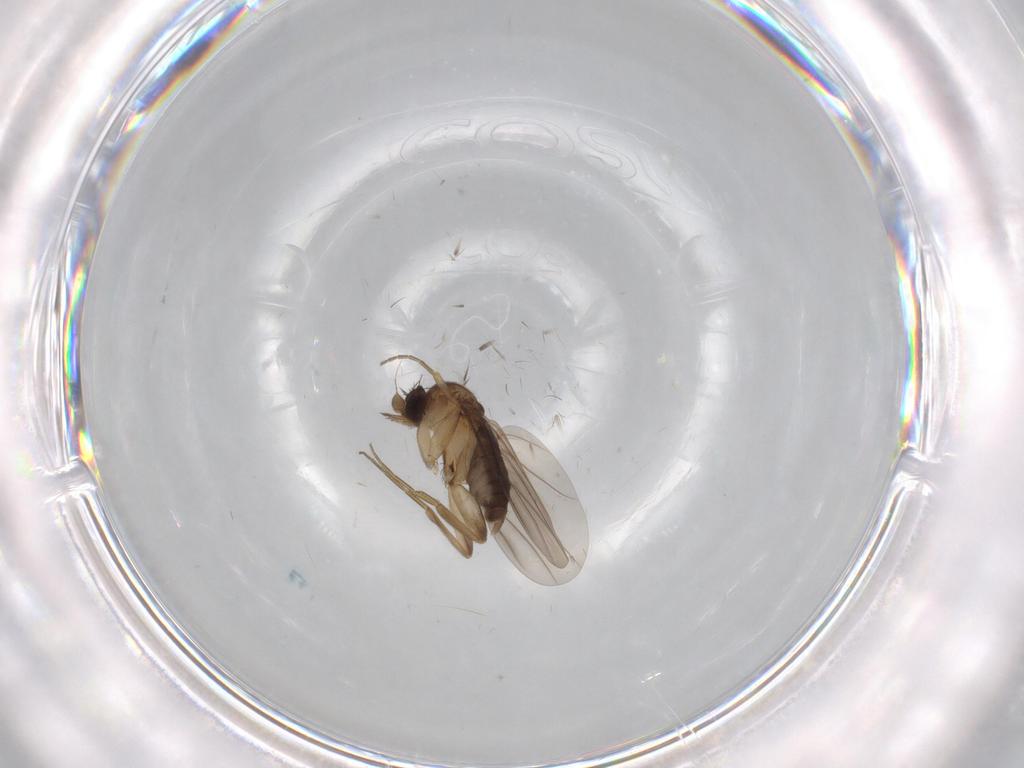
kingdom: Animalia
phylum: Arthropoda
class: Insecta
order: Diptera
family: Phoridae
